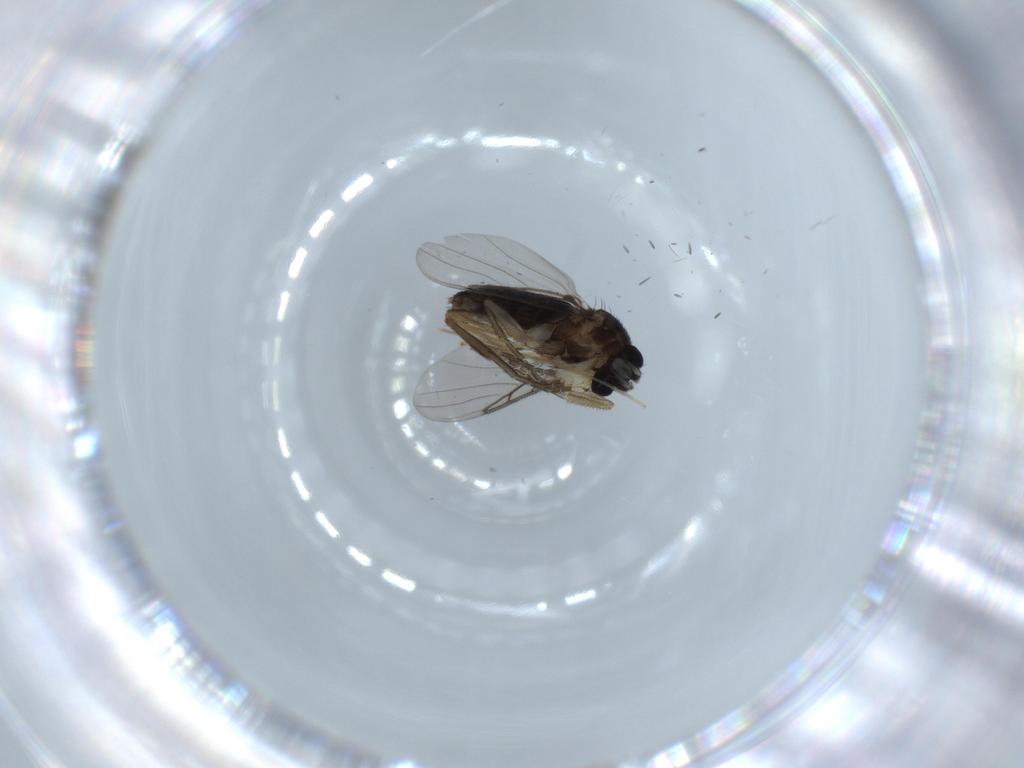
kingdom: Animalia
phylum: Arthropoda
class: Insecta
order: Diptera
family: Phoridae
